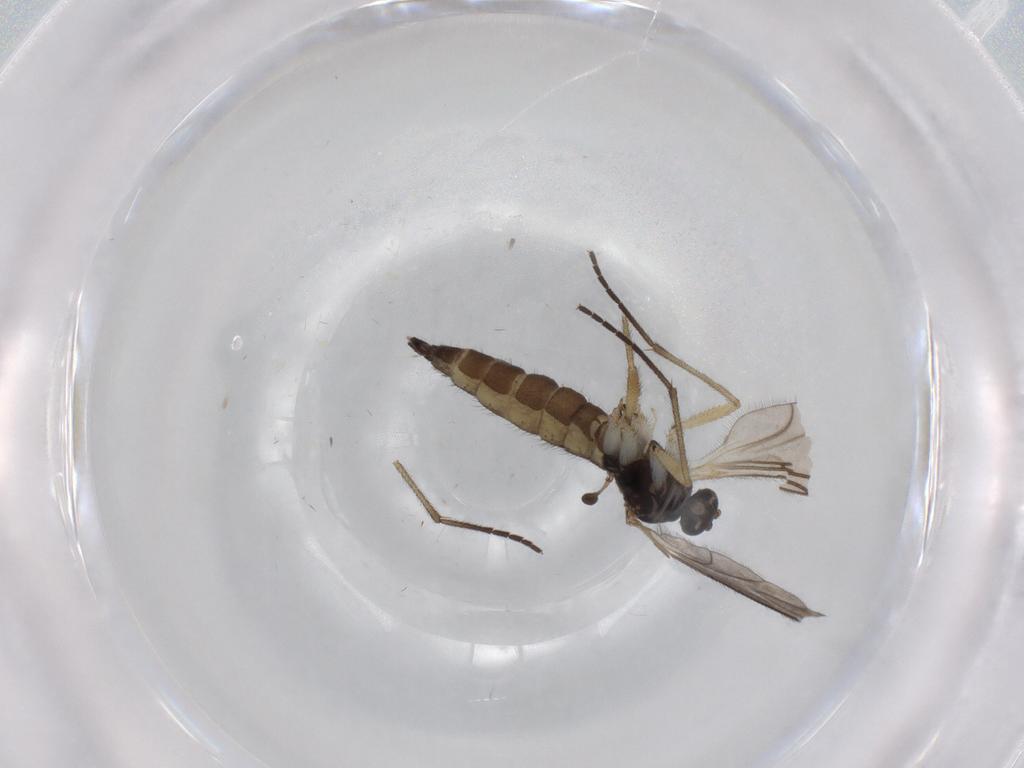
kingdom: Animalia
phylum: Arthropoda
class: Insecta
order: Diptera
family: Sciaridae
